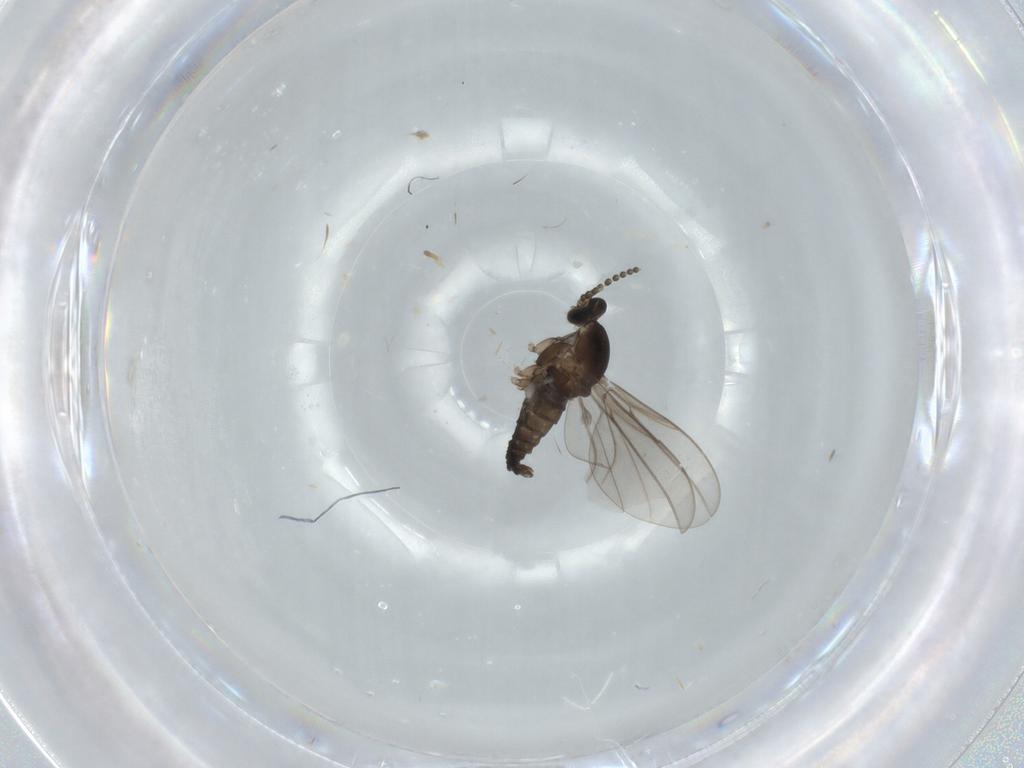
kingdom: Animalia
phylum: Arthropoda
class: Insecta
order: Diptera
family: Cecidomyiidae
